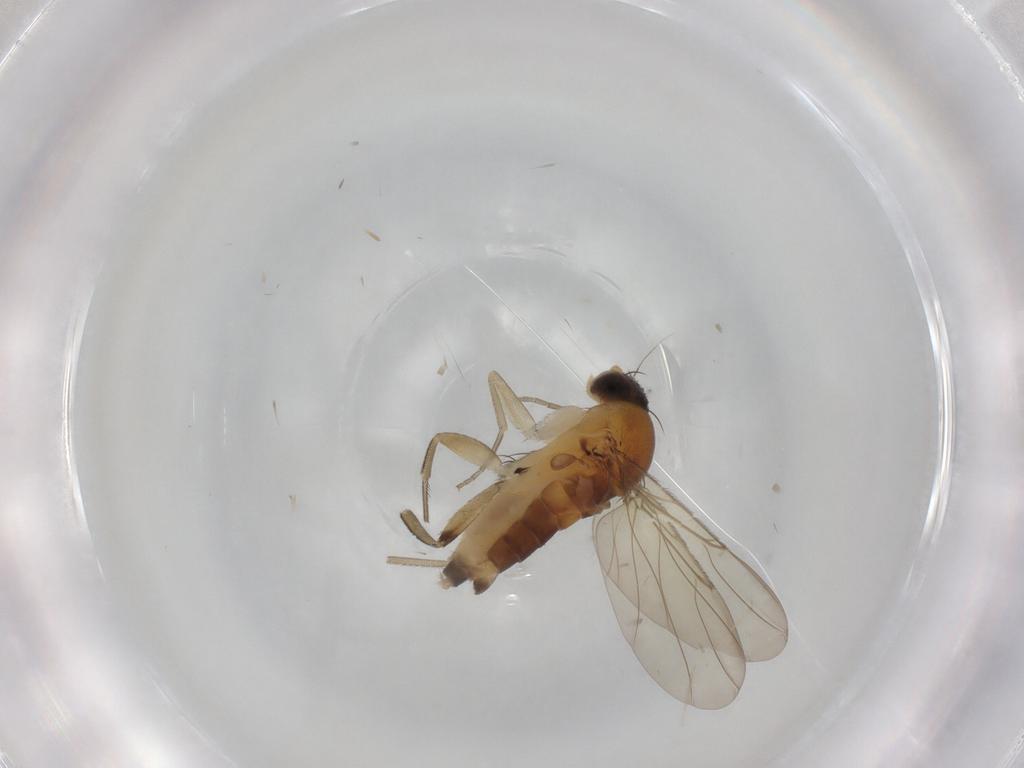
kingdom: Animalia
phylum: Arthropoda
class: Insecta
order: Diptera
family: Phoridae
